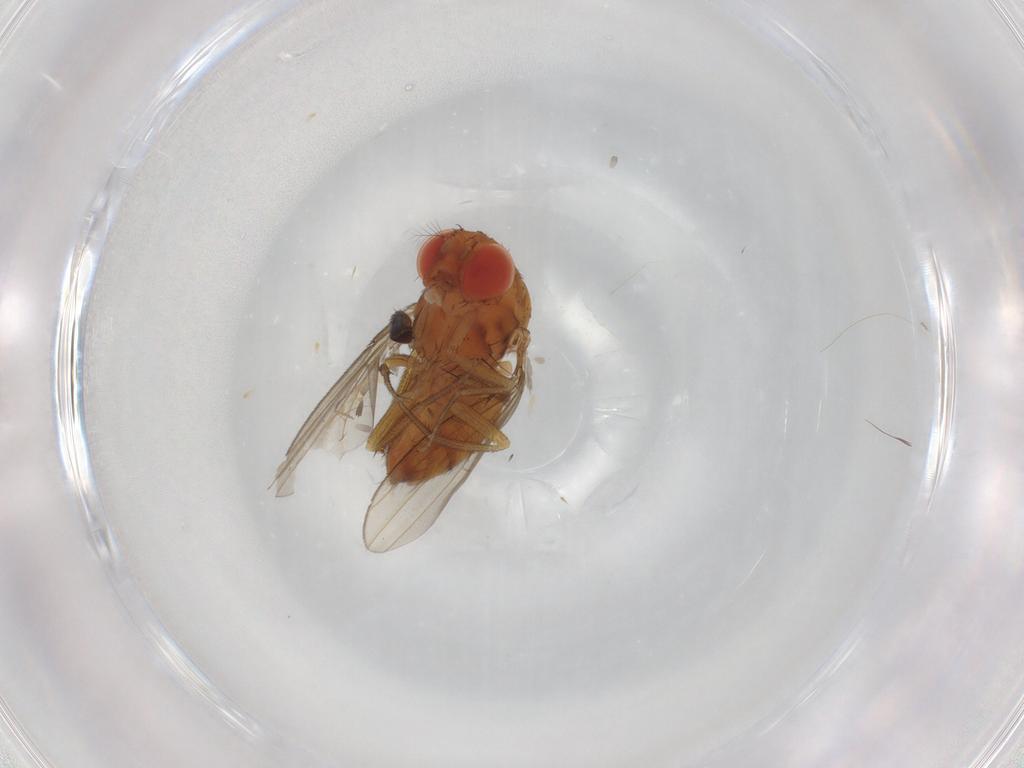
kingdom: Animalia
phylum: Arthropoda
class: Insecta
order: Diptera
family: Dolichopodidae
